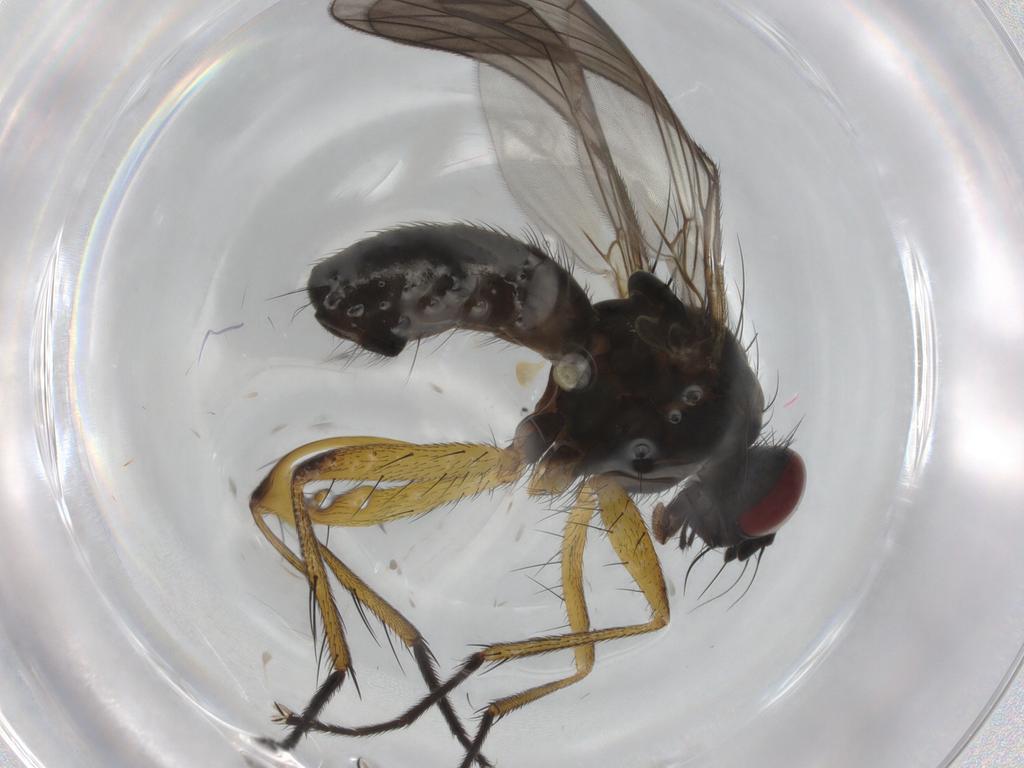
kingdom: Animalia
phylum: Arthropoda
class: Insecta
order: Diptera
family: Muscidae
